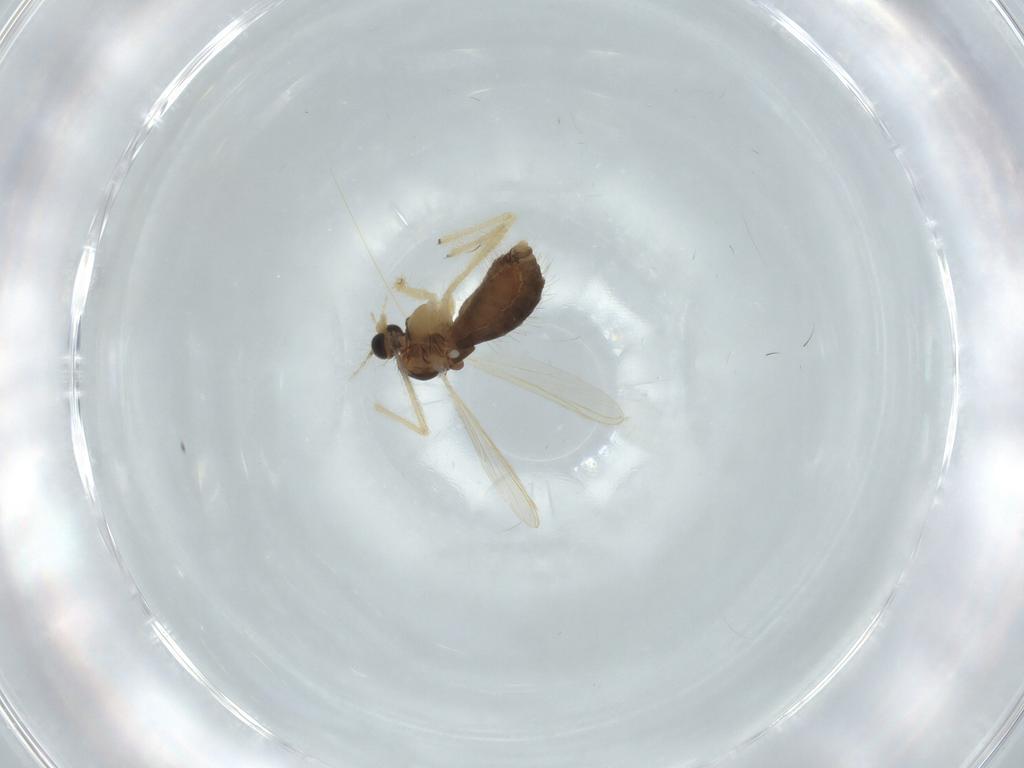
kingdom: Animalia
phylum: Arthropoda
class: Insecta
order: Diptera
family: Chironomidae
